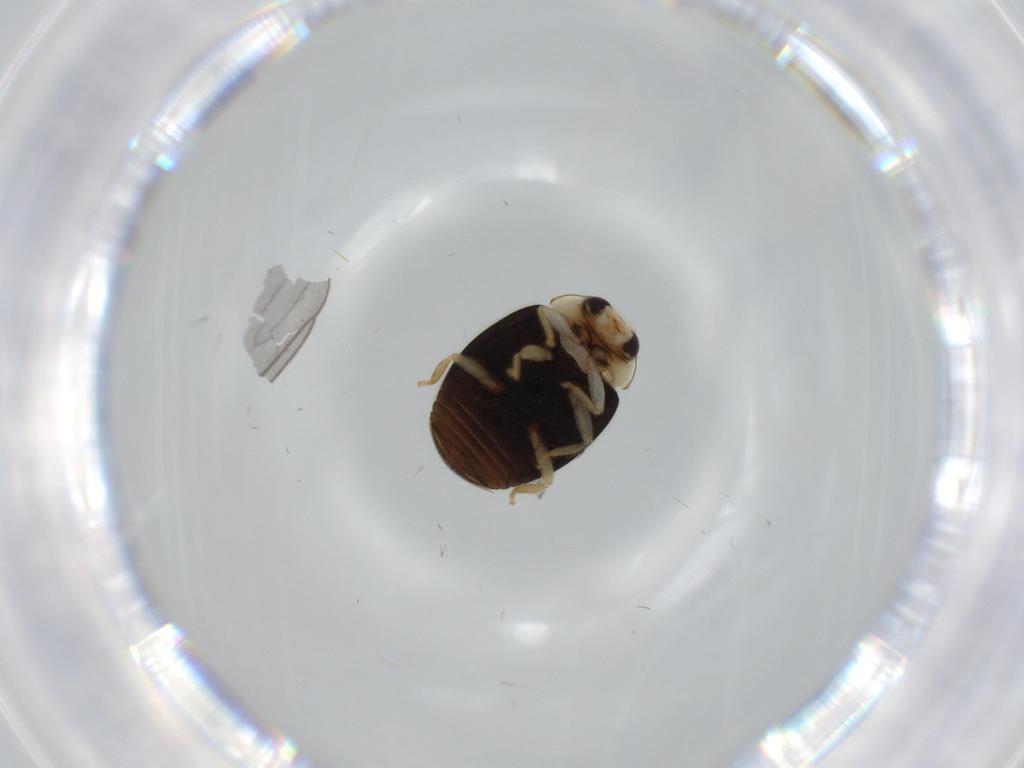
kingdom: Animalia
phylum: Arthropoda
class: Insecta
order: Coleoptera
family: Coccinellidae
